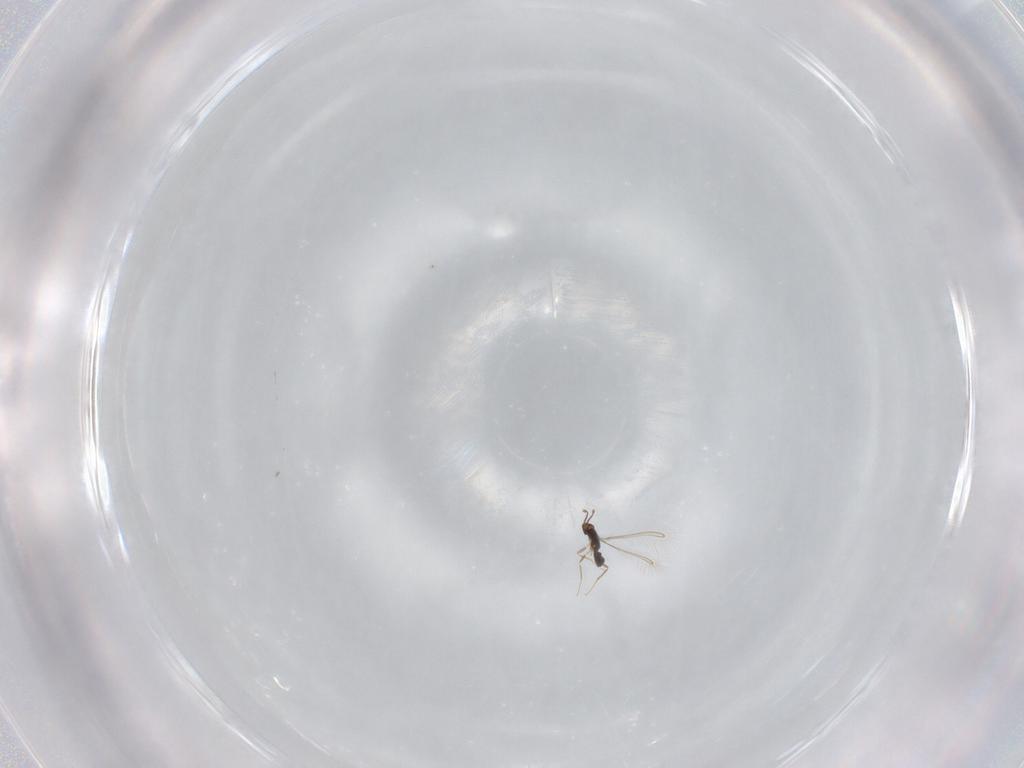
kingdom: Animalia
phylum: Arthropoda
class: Insecta
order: Hymenoptera
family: Mymaridae
